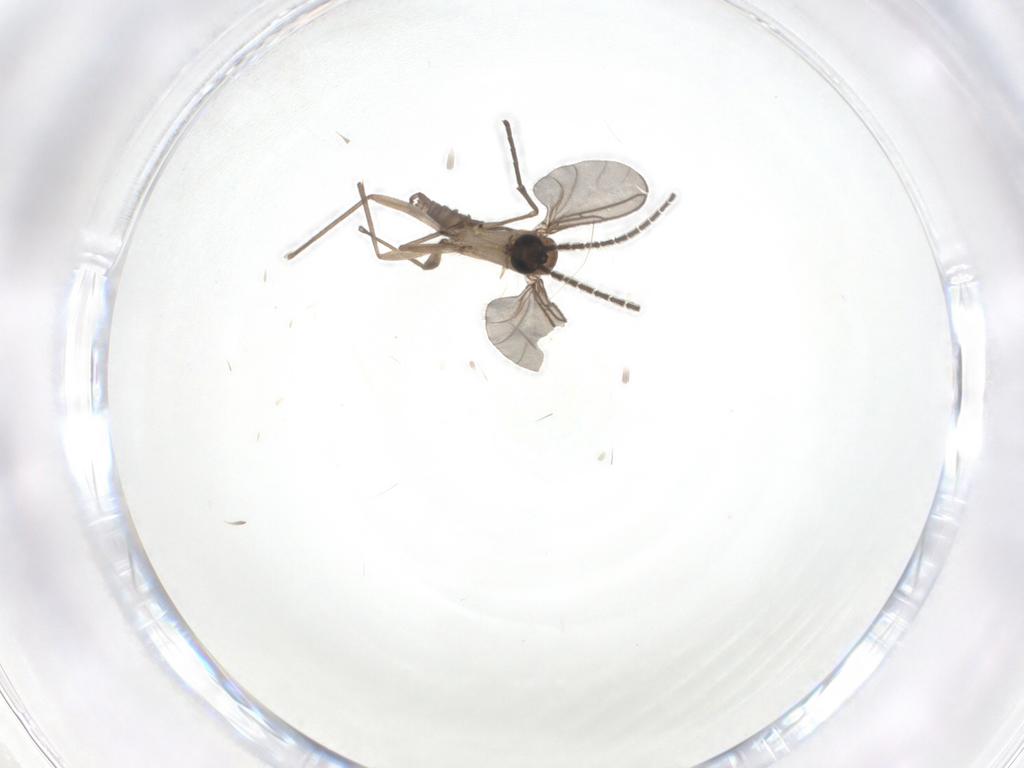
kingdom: Animalia
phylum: Arthropoda
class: Insecta
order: Diptera
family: Sciaridae
